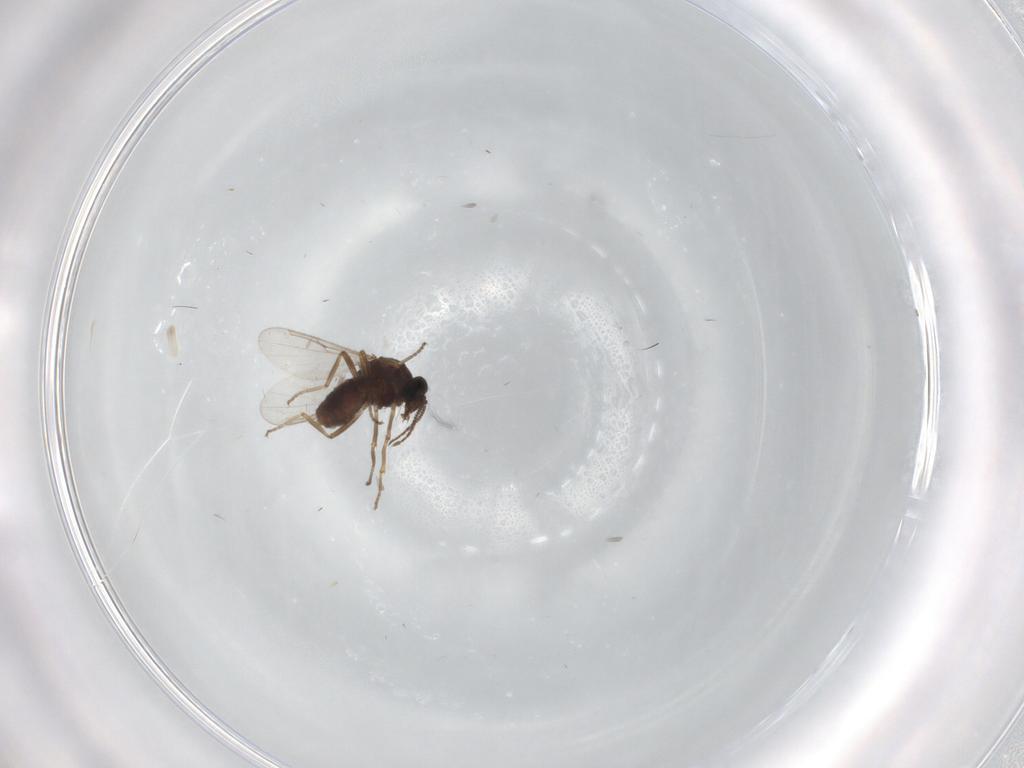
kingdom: Animalia
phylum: Arthropoda
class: Insecta
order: Diptera
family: Ceratopogonidae
